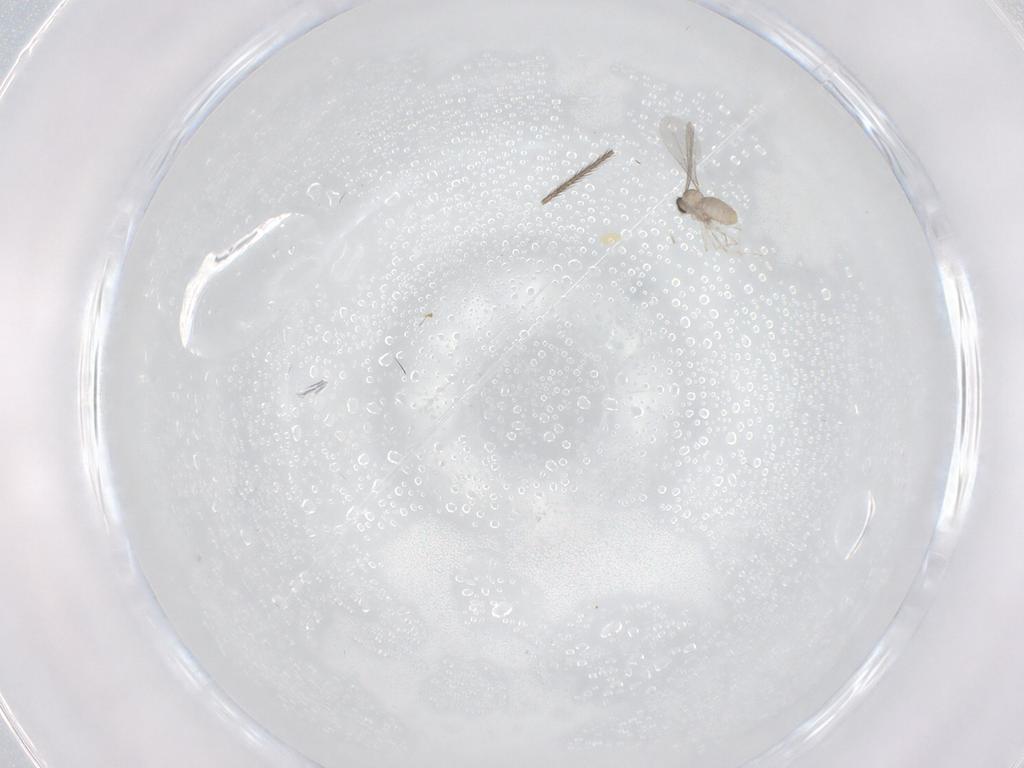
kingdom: Animalia
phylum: Arthropoda
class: Insecta
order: Diptera
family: Cecidomyiidae
